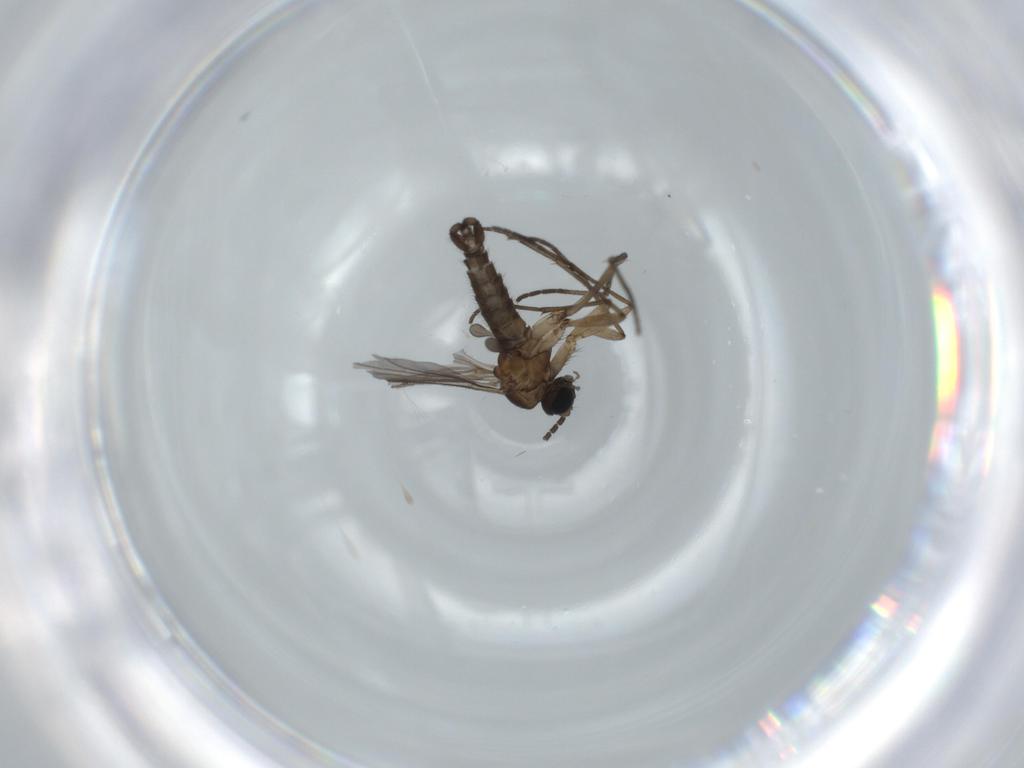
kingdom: Animalia
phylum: Arthropoda
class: Insecta
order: Diptera
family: Sciaridae
